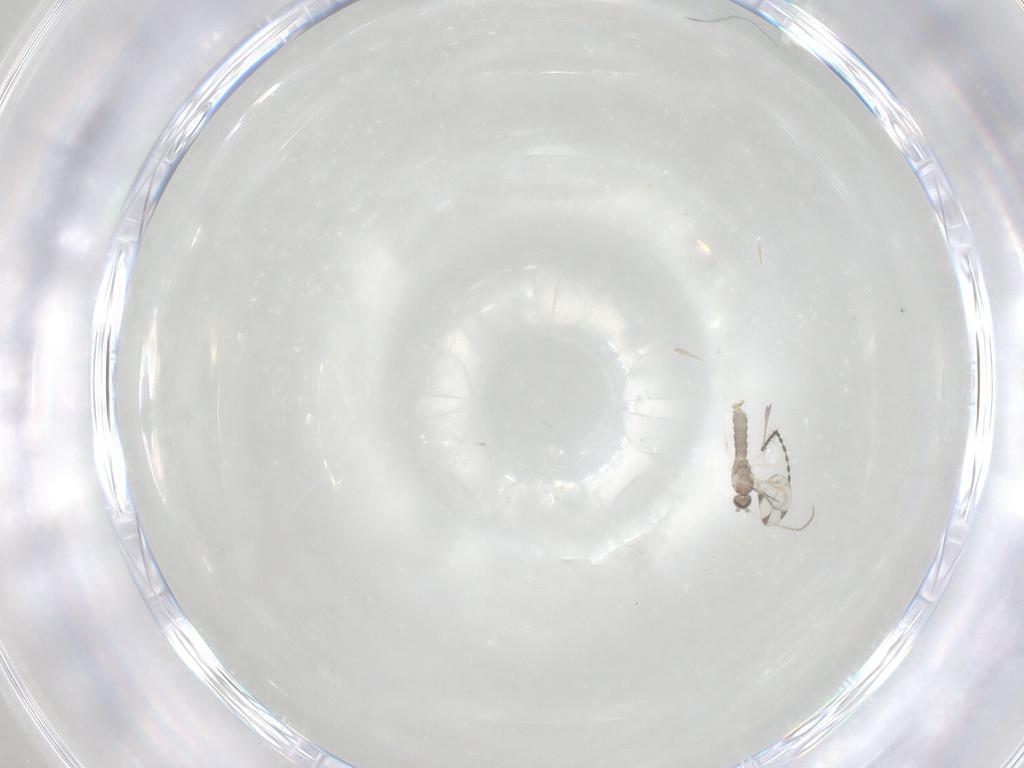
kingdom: Animalia
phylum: Arthropoda
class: Insecta
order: Diptera
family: Cecidomyiidae
